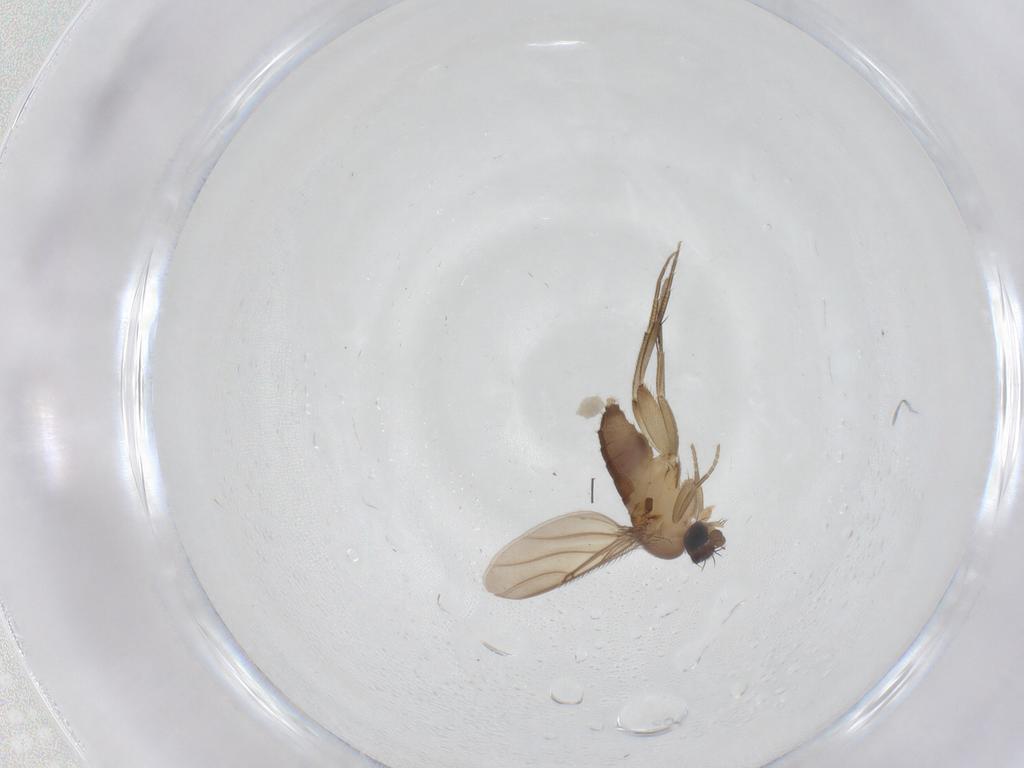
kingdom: Animalia
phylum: Arthropoda
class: Insecta
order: Diptera
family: Phoridae
